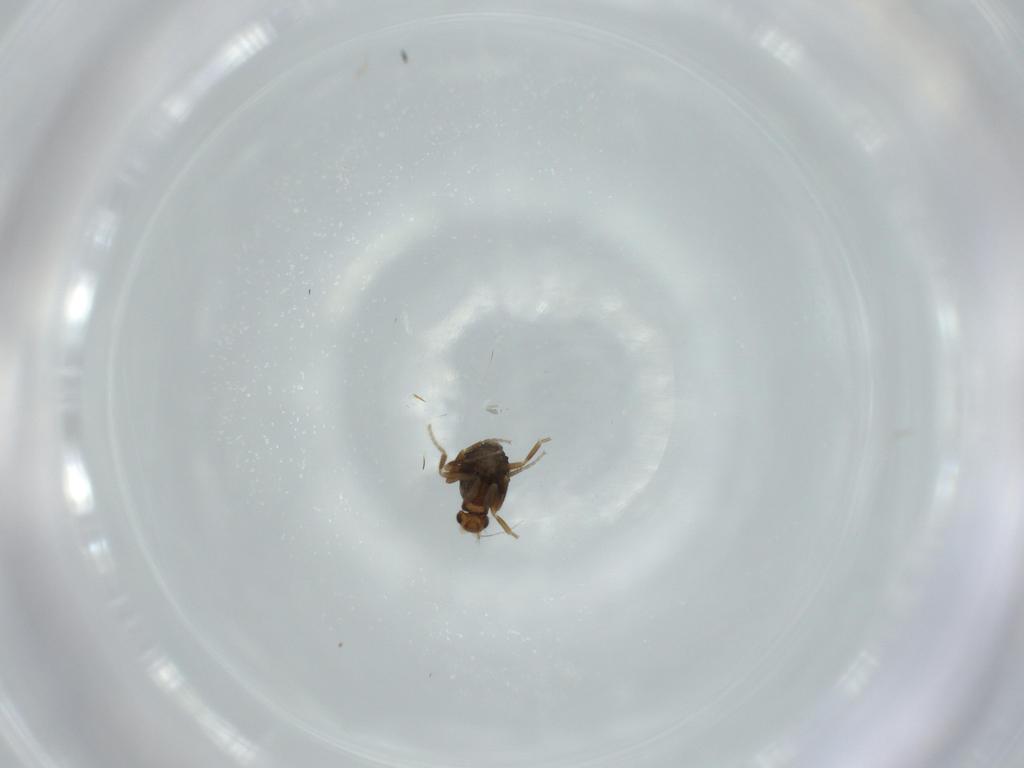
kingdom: Animalia
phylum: Arthropoda
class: Insecta
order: Diptera
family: Phoridae
